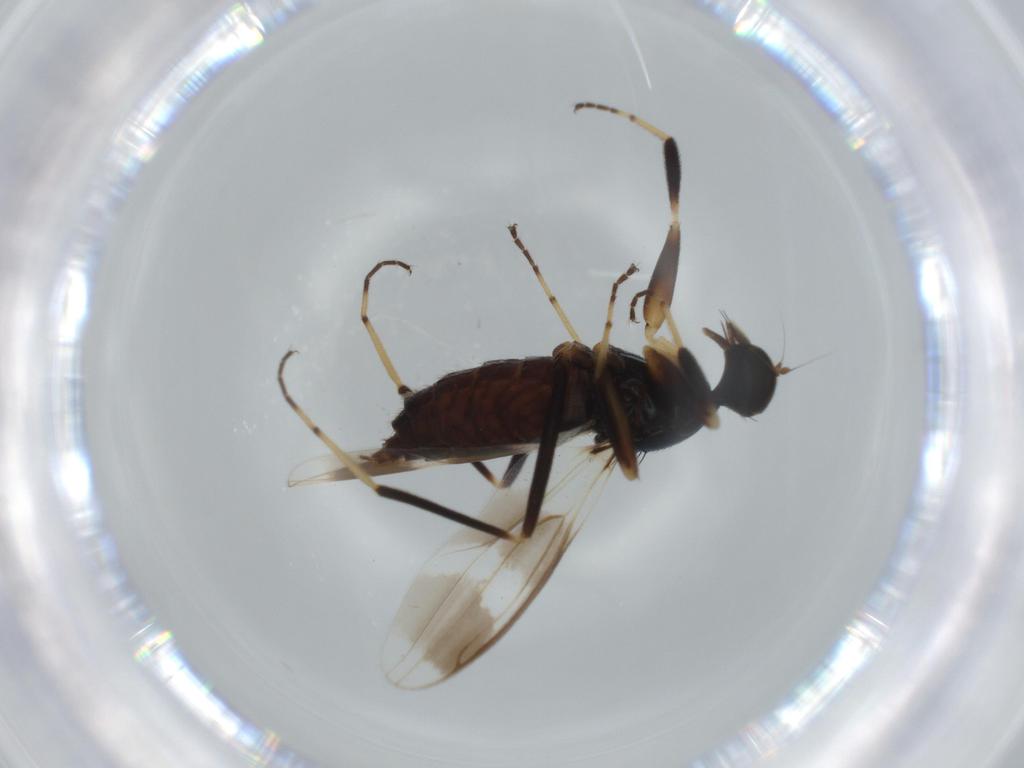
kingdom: Animalia
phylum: Arthropoda
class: Insecta
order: Diptera
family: Hybotidae
